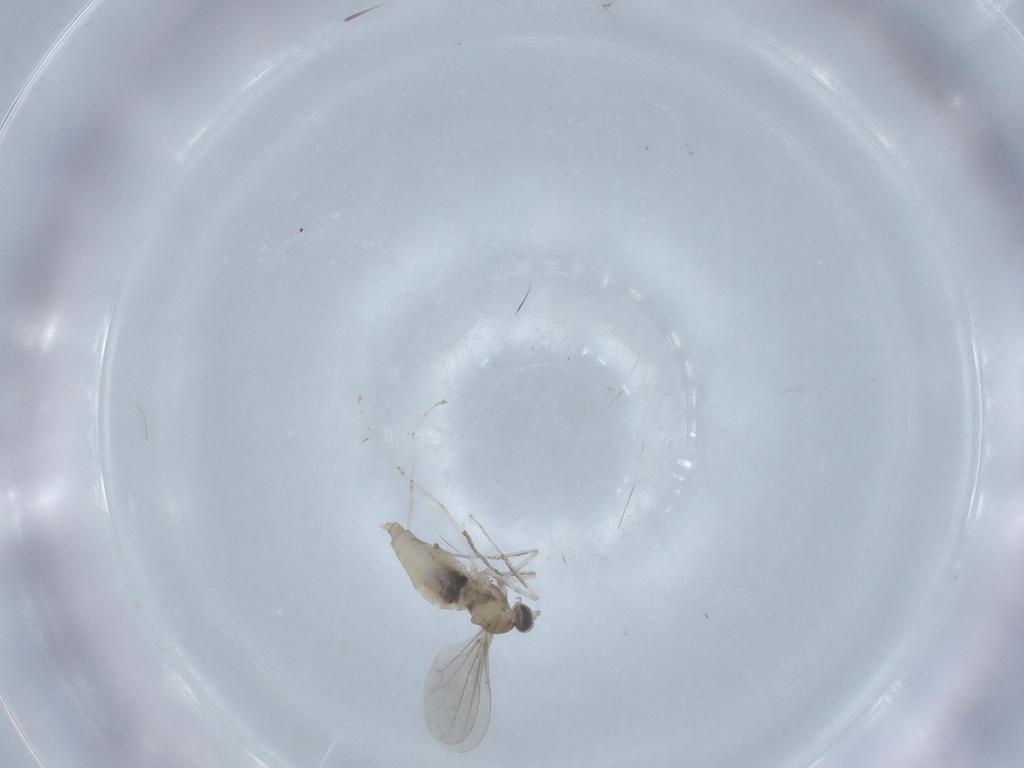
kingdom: Animalia
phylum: Arthropoda
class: Insecta
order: Diptera
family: Cecidomyiidae
